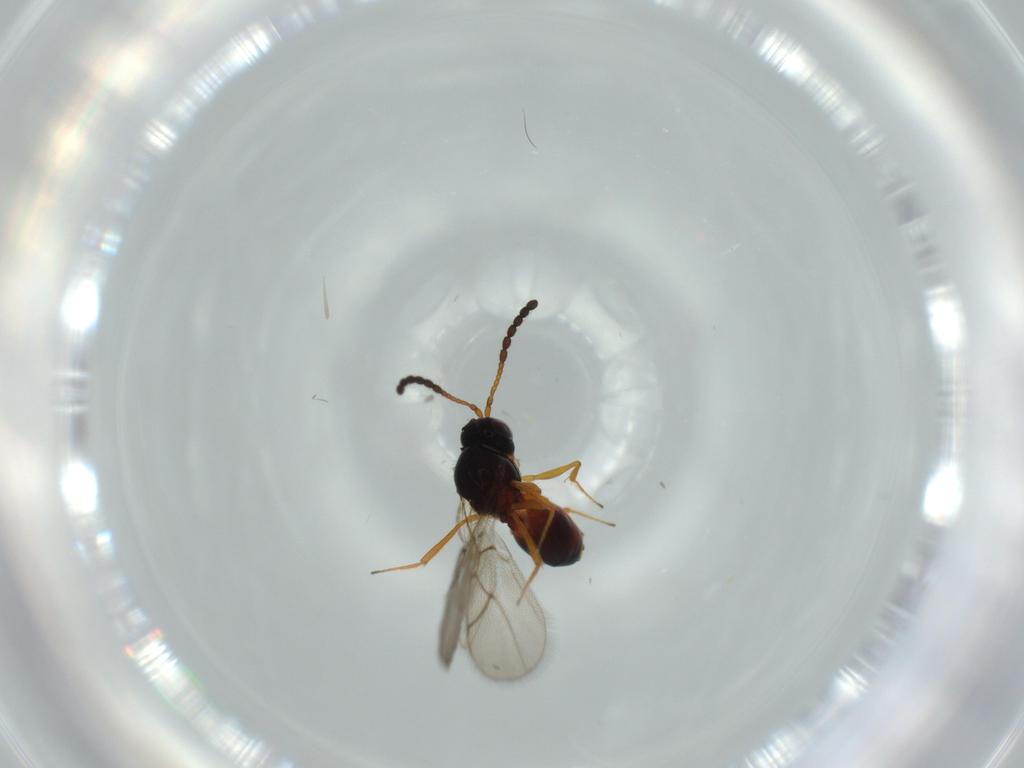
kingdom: Animalia
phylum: Arthropoda
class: Insecta
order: Hymenoptera
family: Figitidae
